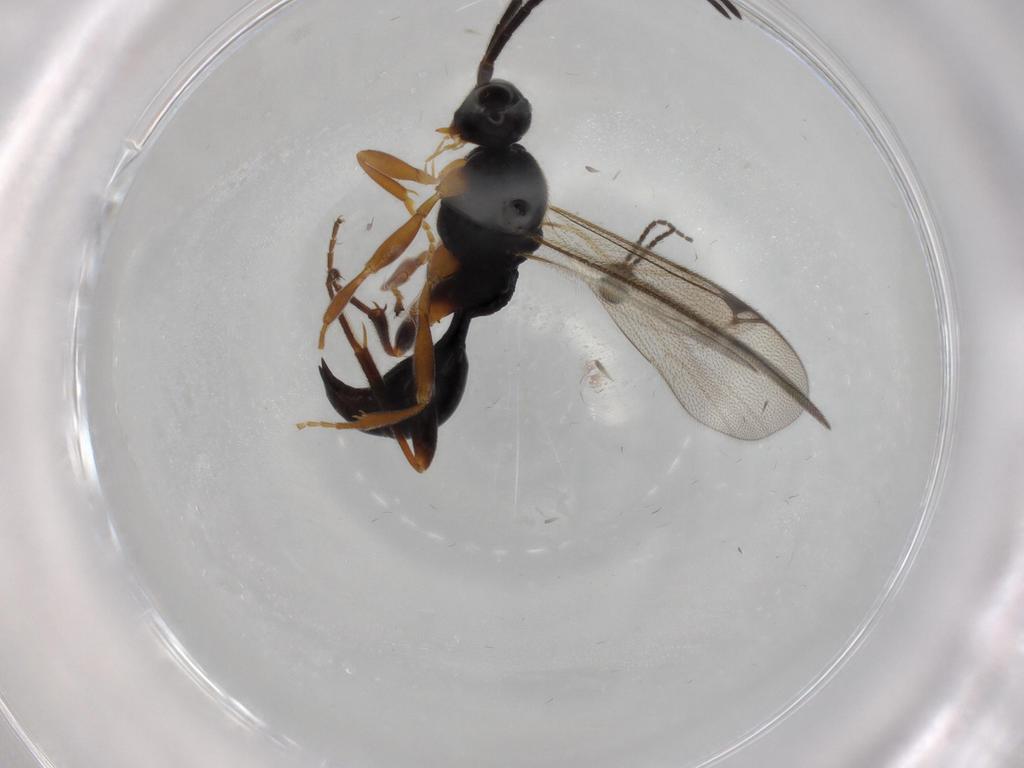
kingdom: Animalia
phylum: Arthropoda
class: Insecta
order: Hymenoptera
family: Proctotrupidae
